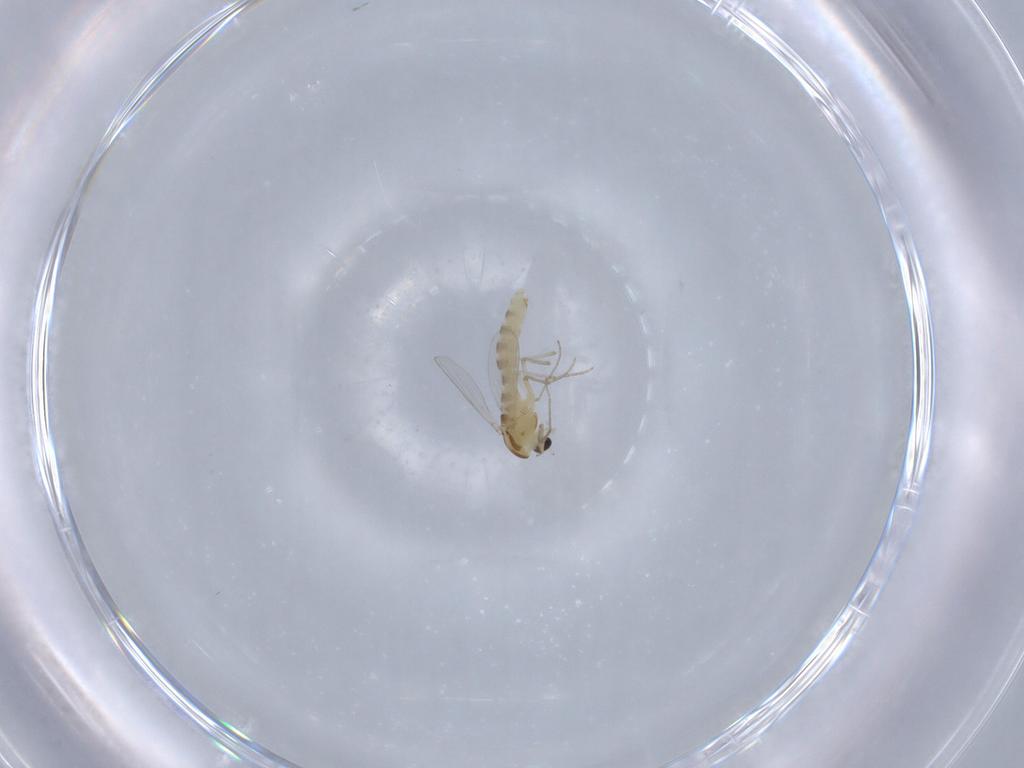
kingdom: Animalia
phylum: Arthropoda
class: Insecta
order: Diptera
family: Chironomidae
